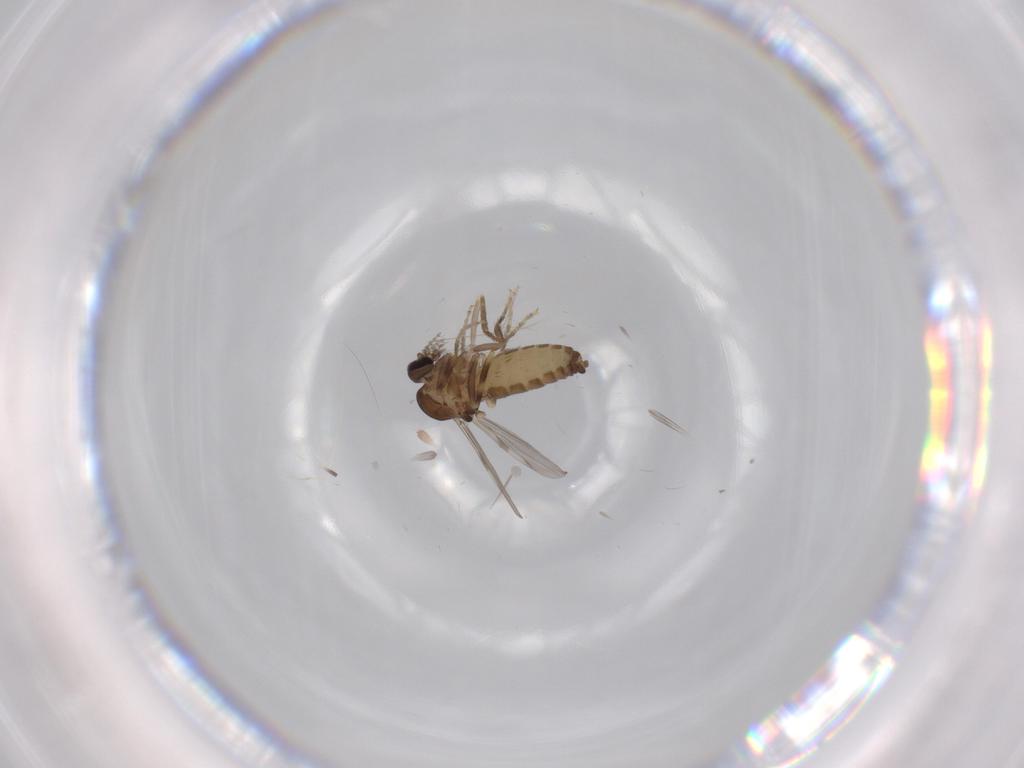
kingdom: Animalia
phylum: Arthropoda
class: Insecta
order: Diptera
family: Ceratopogonidae
